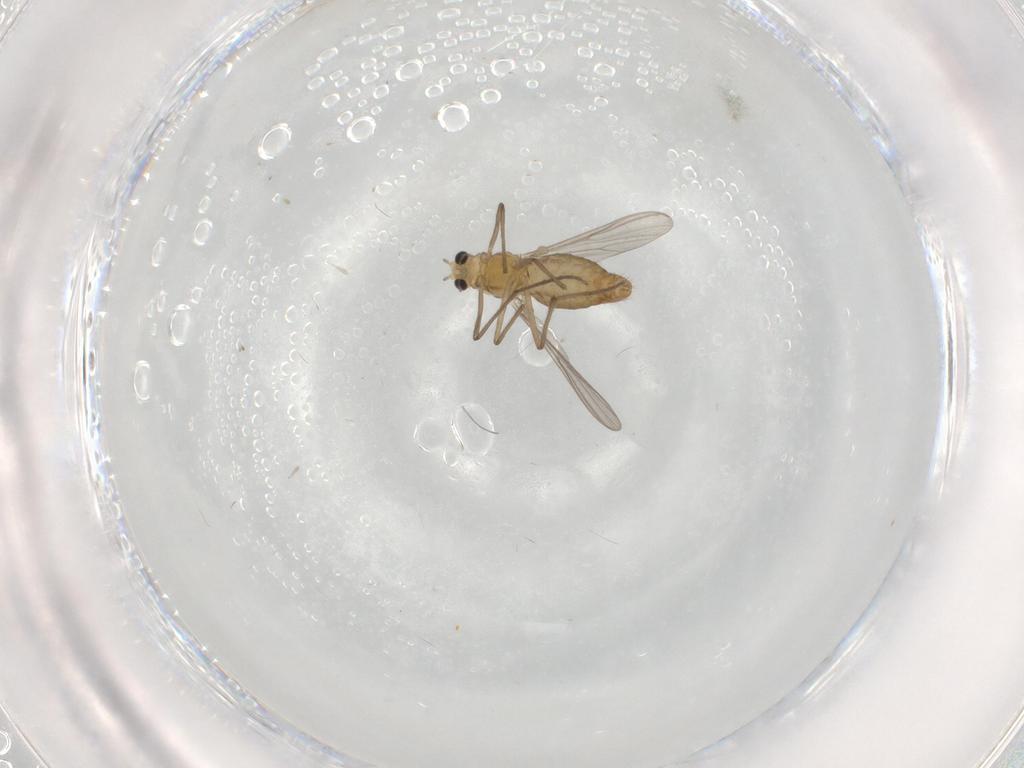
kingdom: Animalia
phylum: Arthropoda
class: Insecta
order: Diptera
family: Chironomidae
